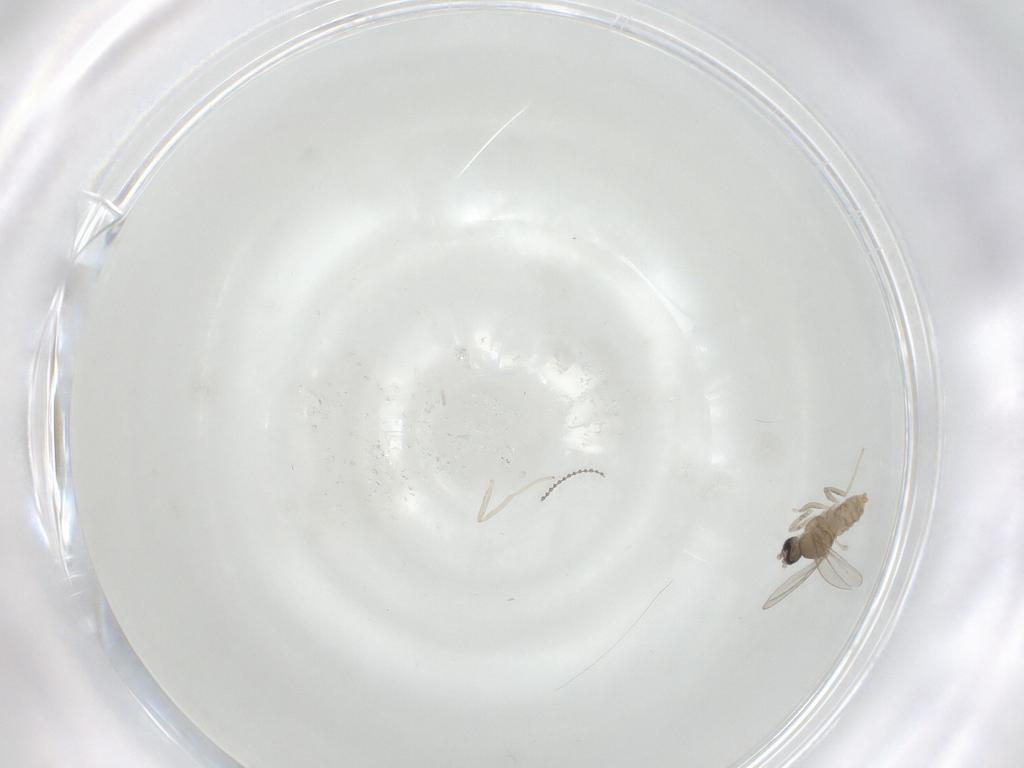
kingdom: Animalia
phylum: Arthropoda
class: Insecta
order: Diptera
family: Cecidomyiidae
